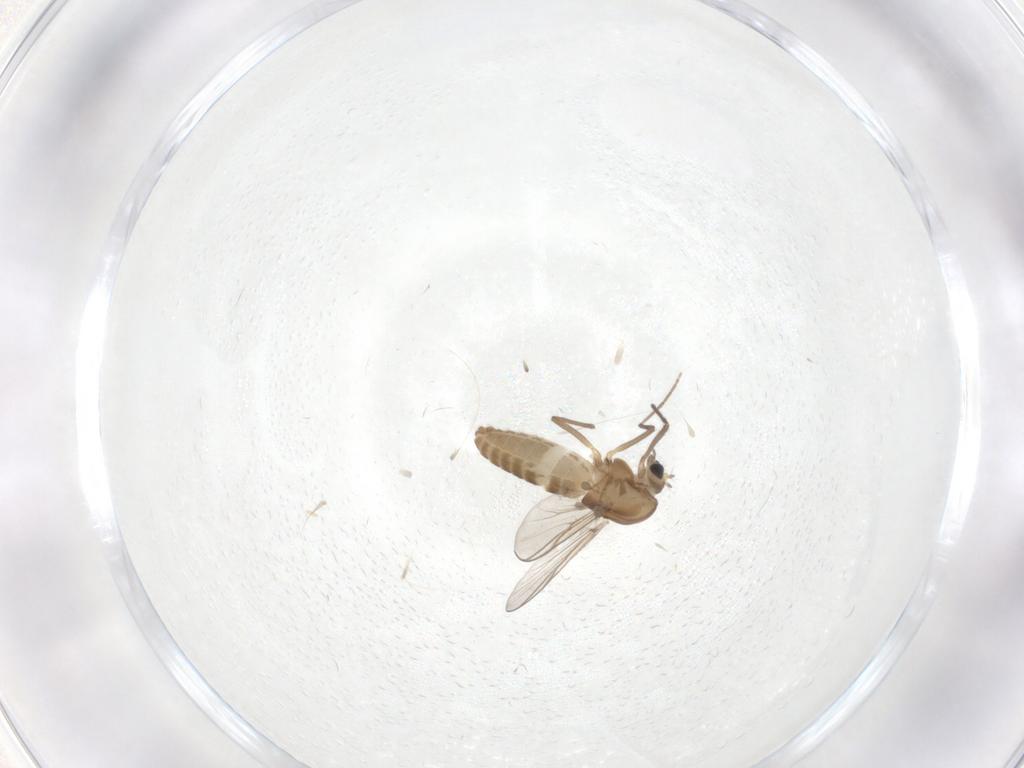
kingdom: Animalia
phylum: Arthropoda
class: Insecta
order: Diptera
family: Chironomidae
